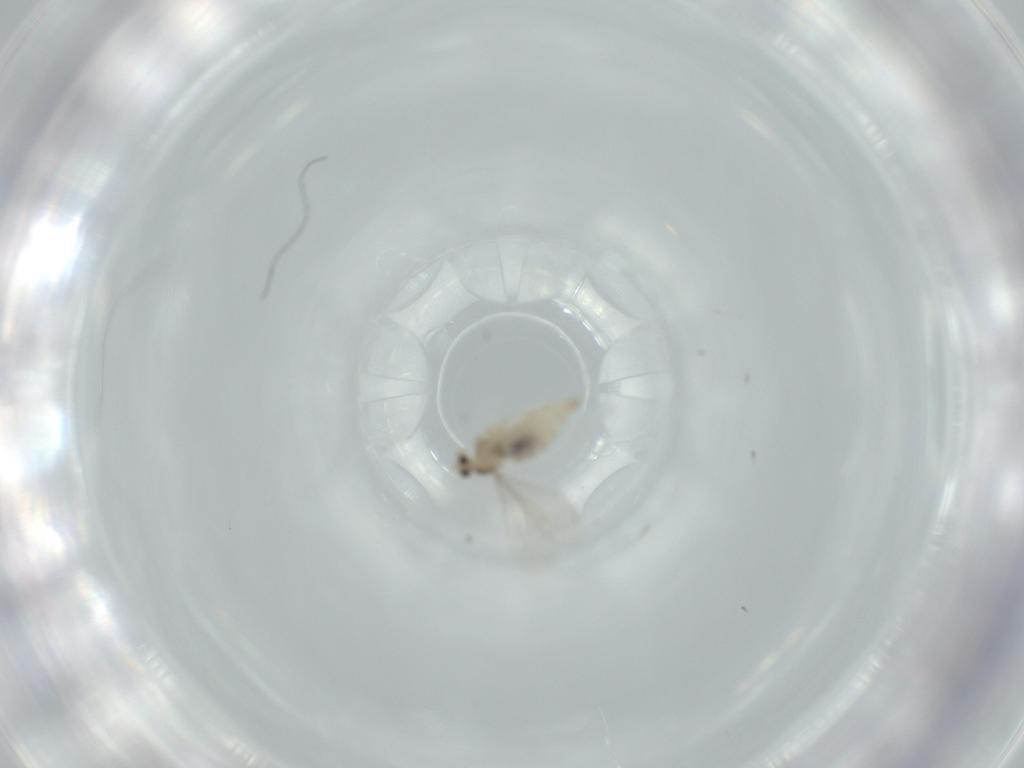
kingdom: Animalia
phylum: Arthropoda
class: Insecta
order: Diptera
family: Cecidomyiidae
